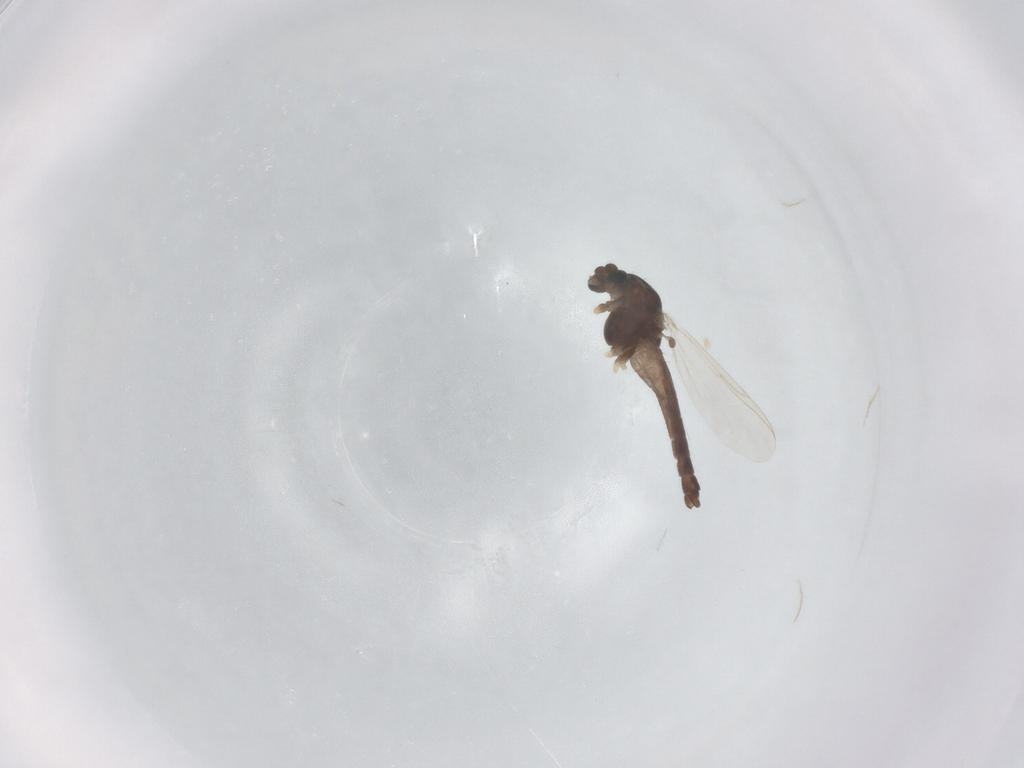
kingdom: Animalia
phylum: Arthropoda
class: Insecta
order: Diptera
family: Chironomidae
